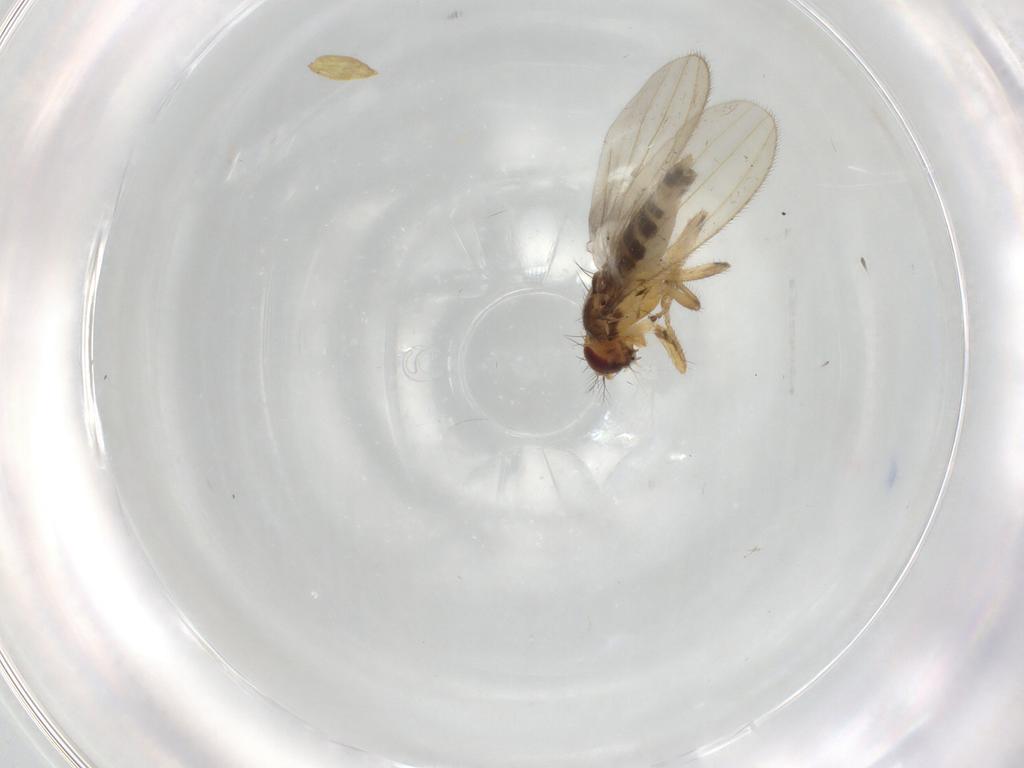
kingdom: Animalia
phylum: Arthropoda
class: Insecta
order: Diptera
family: Periscelididae
